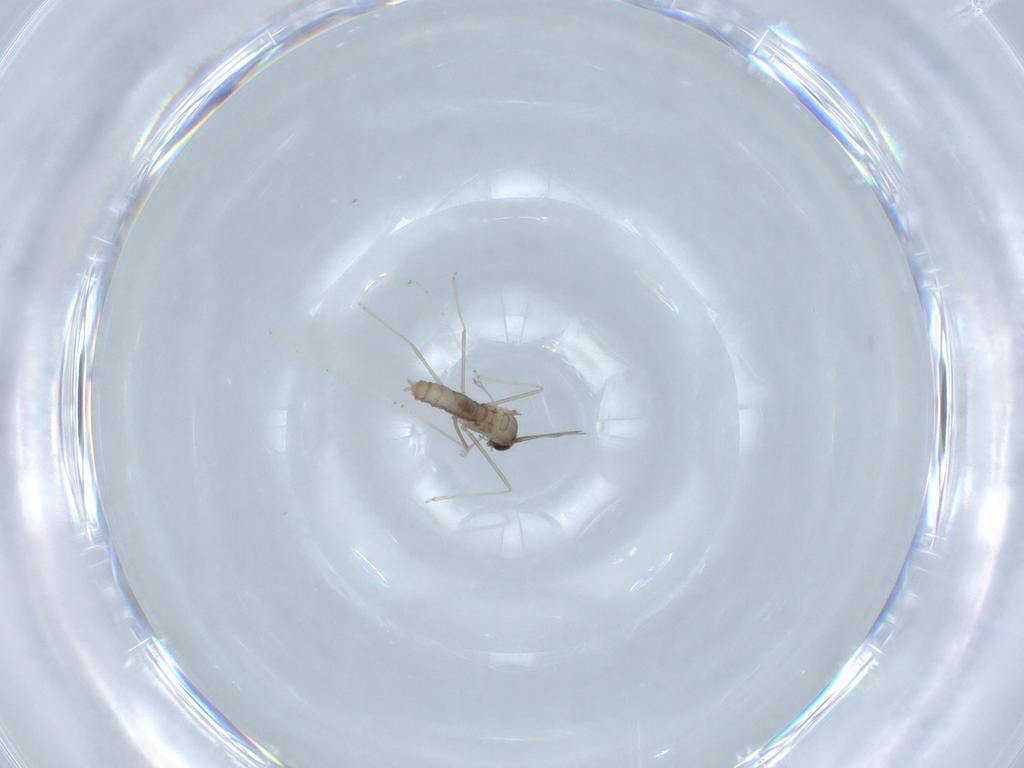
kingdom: Animalia
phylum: Arthropoda
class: Insecta
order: Diptera
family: Cecidomyiidae
